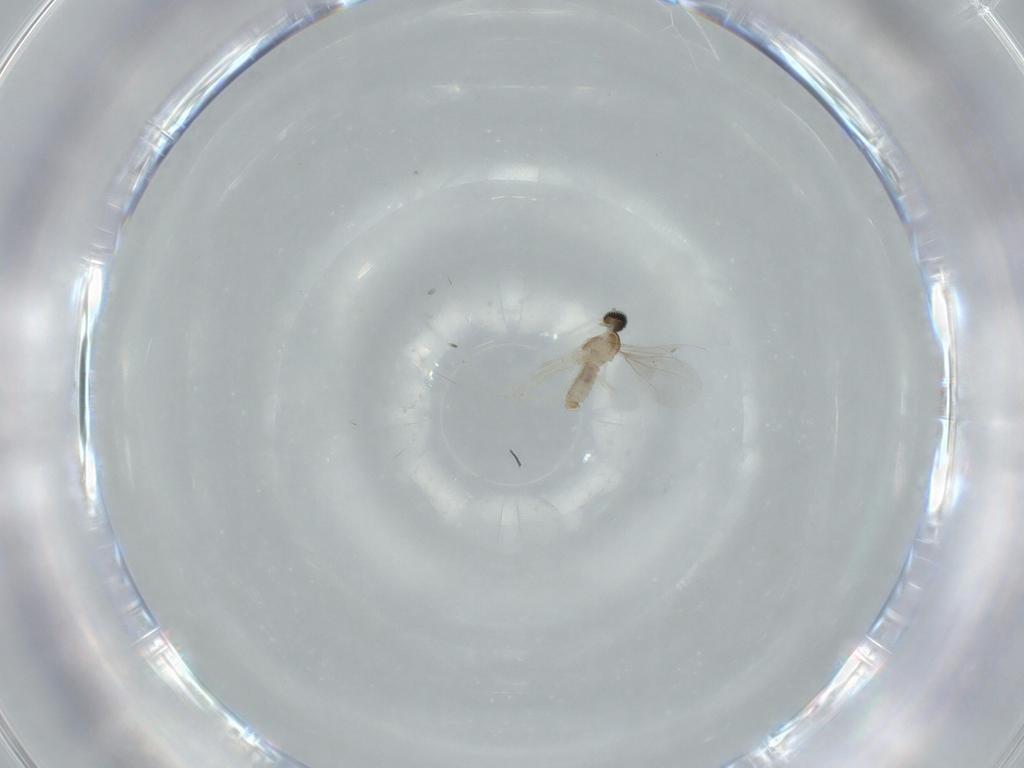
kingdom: Animalia
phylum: Arthropoda
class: Insecta
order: Diptera
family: Cecidomyiidae
